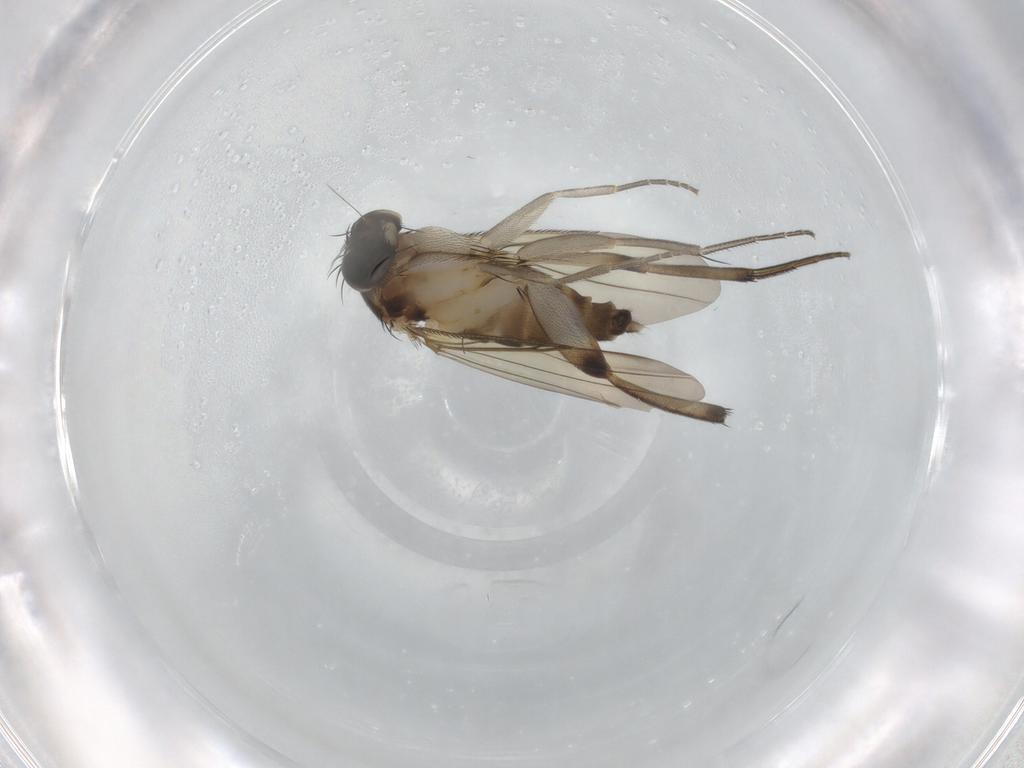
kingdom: Animalia
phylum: Arthropoda
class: Insecta
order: Diptera
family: Phoridae
